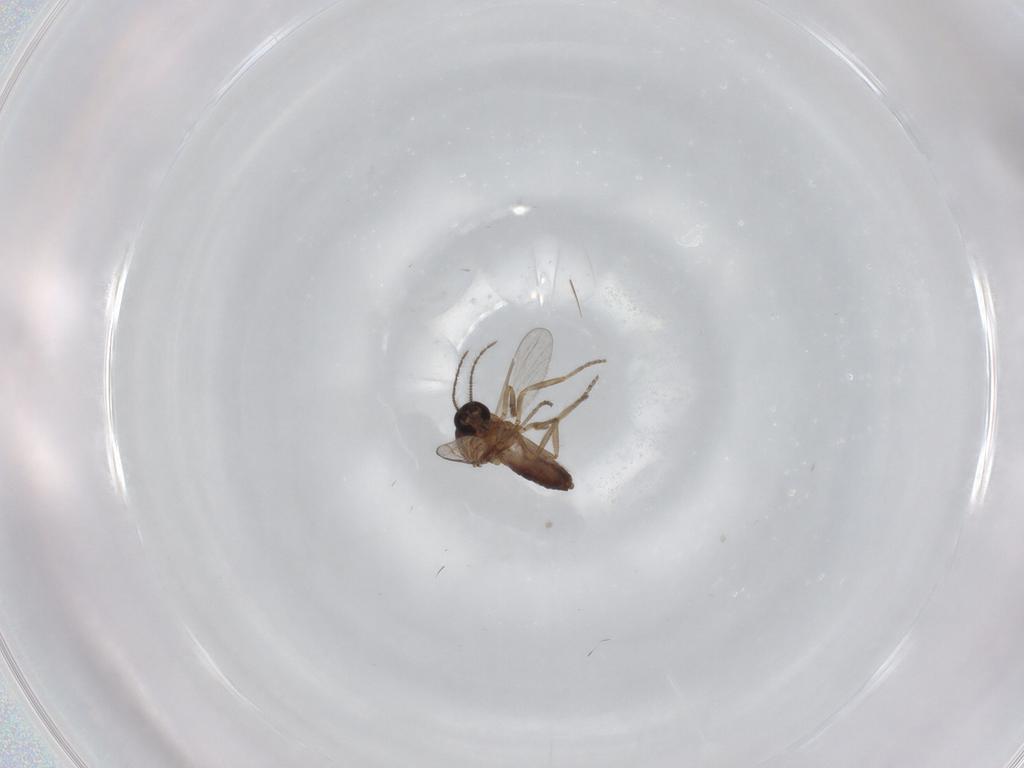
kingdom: Animalia
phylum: Arthropoda
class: Insecta
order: Diptera
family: Ceratopogonidae
